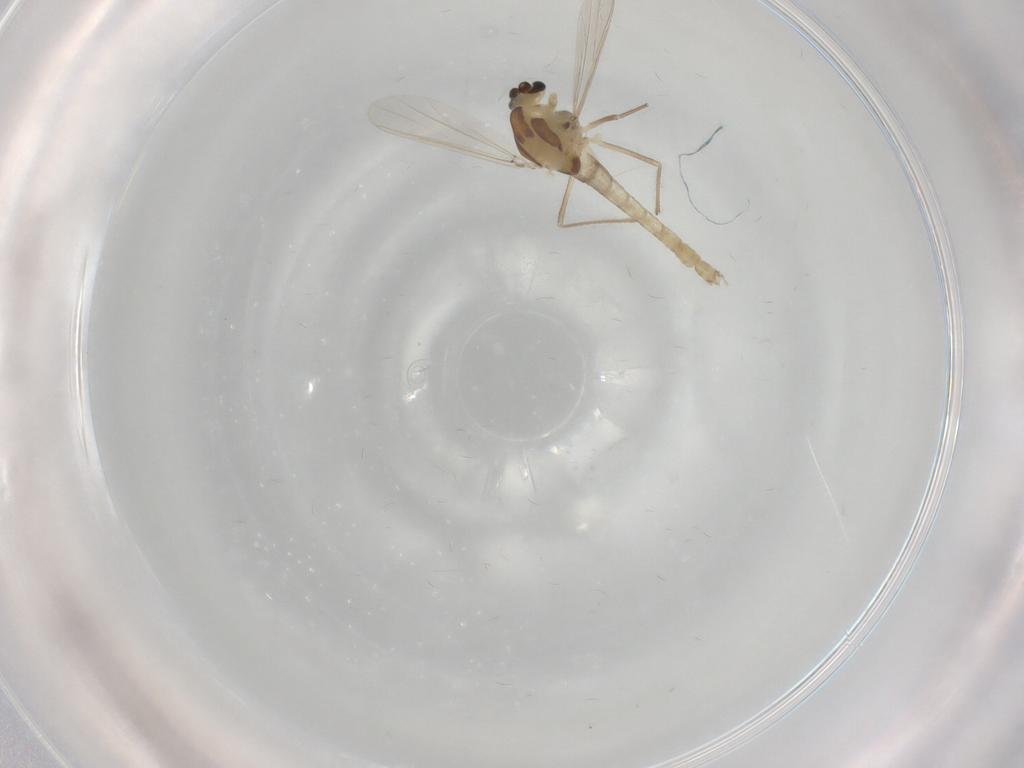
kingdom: Animalia
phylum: Arthropoda
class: Insecta
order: Diptera
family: Chironomidae
